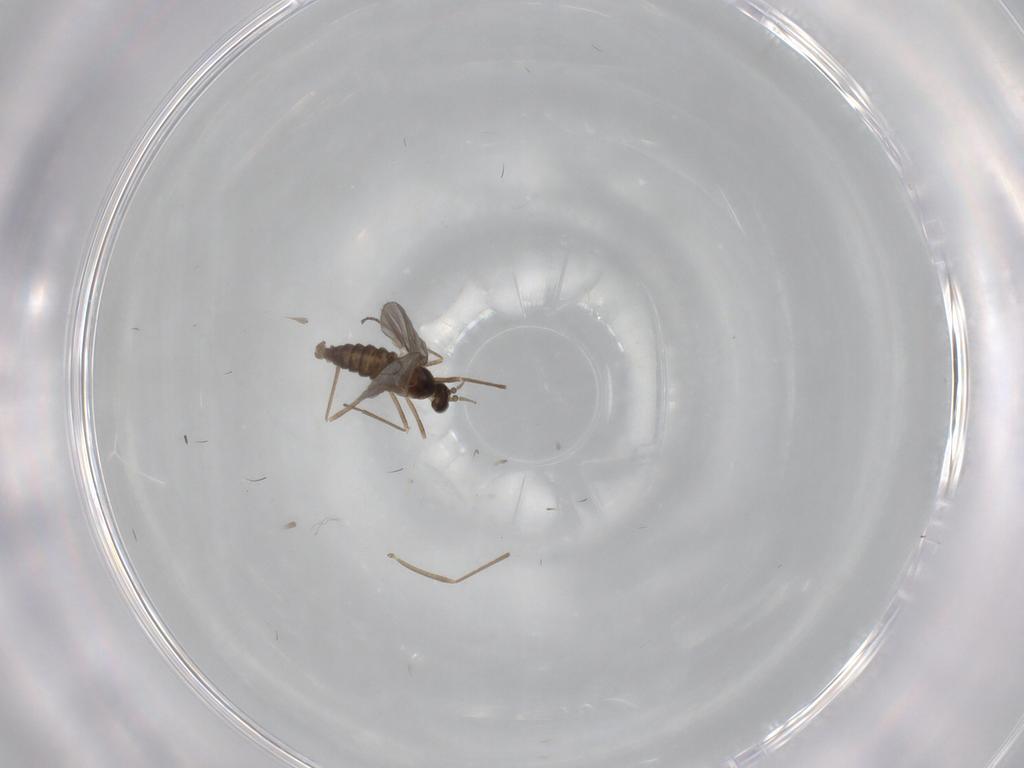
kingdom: Animalia
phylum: Arthropoda
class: Insecta
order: Diptera
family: Cecidomyiidae
